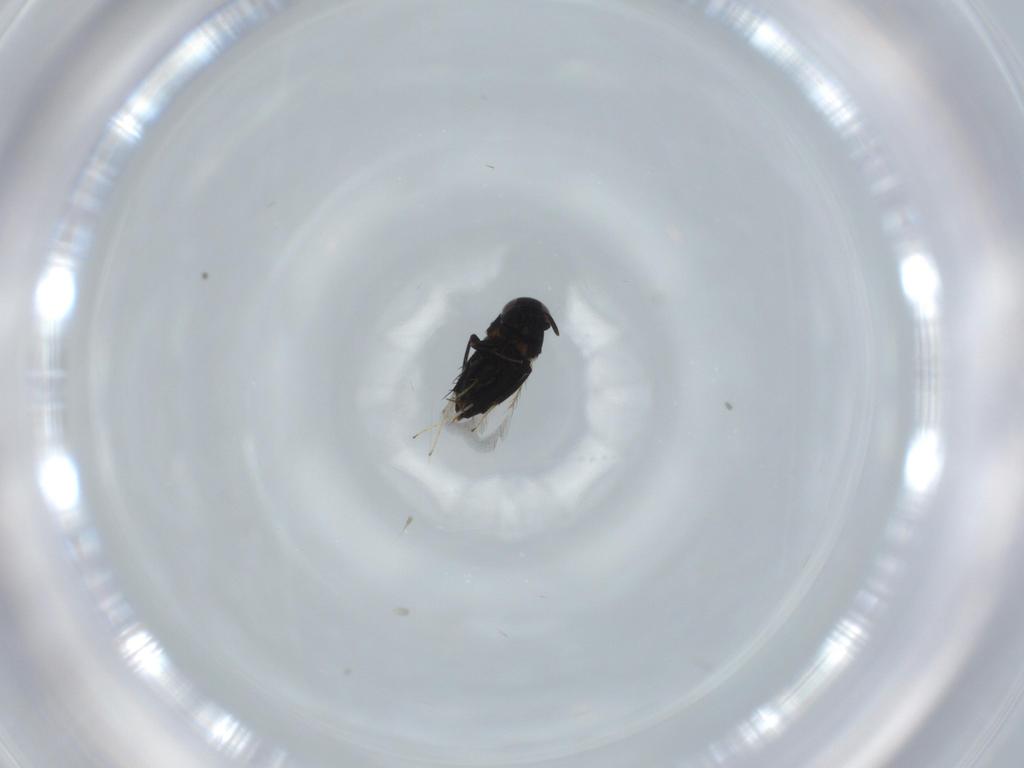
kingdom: Animalia
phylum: Arthropoda
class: Insecta
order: Hymenoptera
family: Signiphoridae
